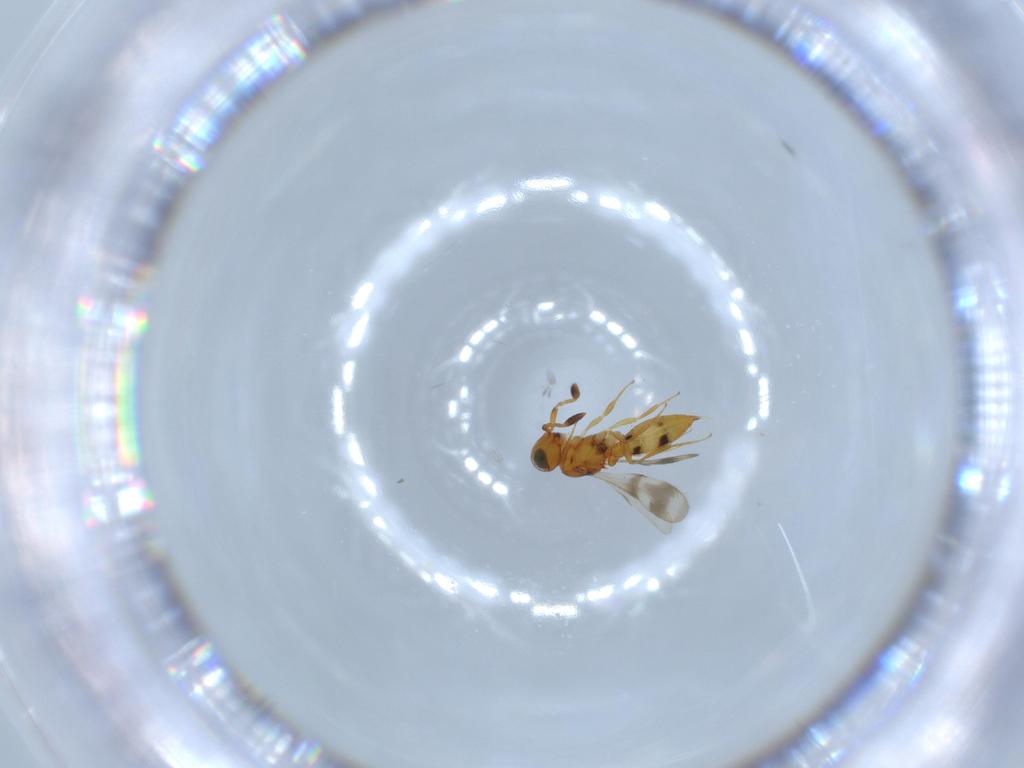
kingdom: Animalia
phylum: Arthropoda
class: Insecta
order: Hymenoptera
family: Scelionidae
